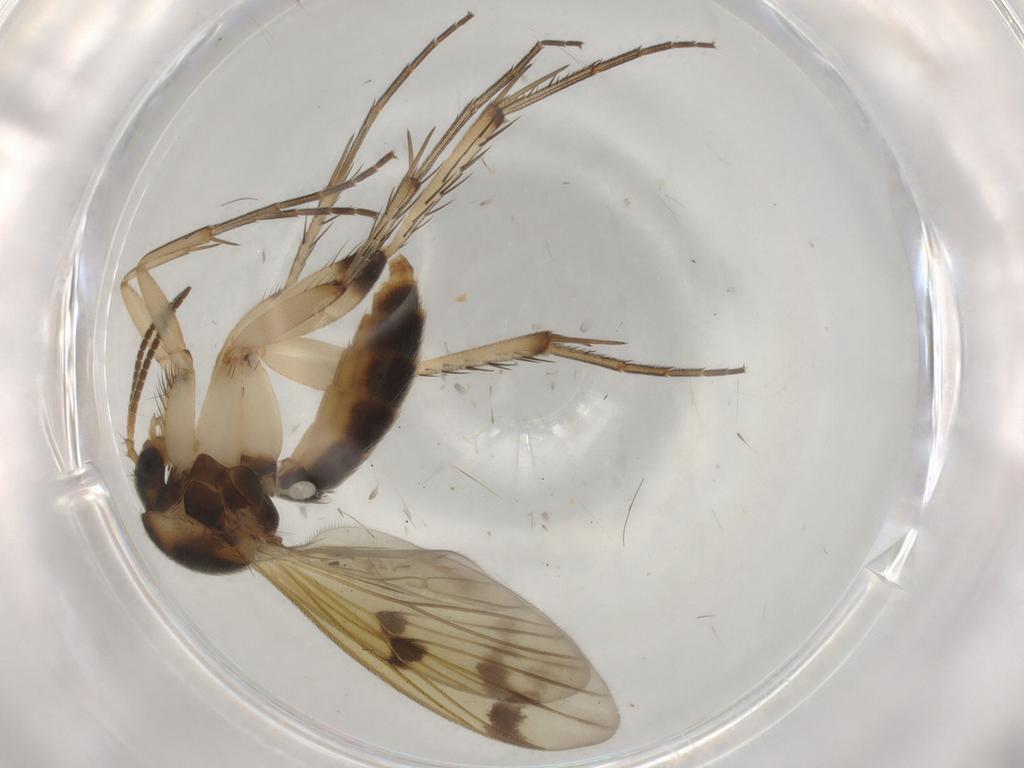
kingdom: Animalia
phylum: Arthropoda
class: Insecta
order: Diptera
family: Mycetophilidae
